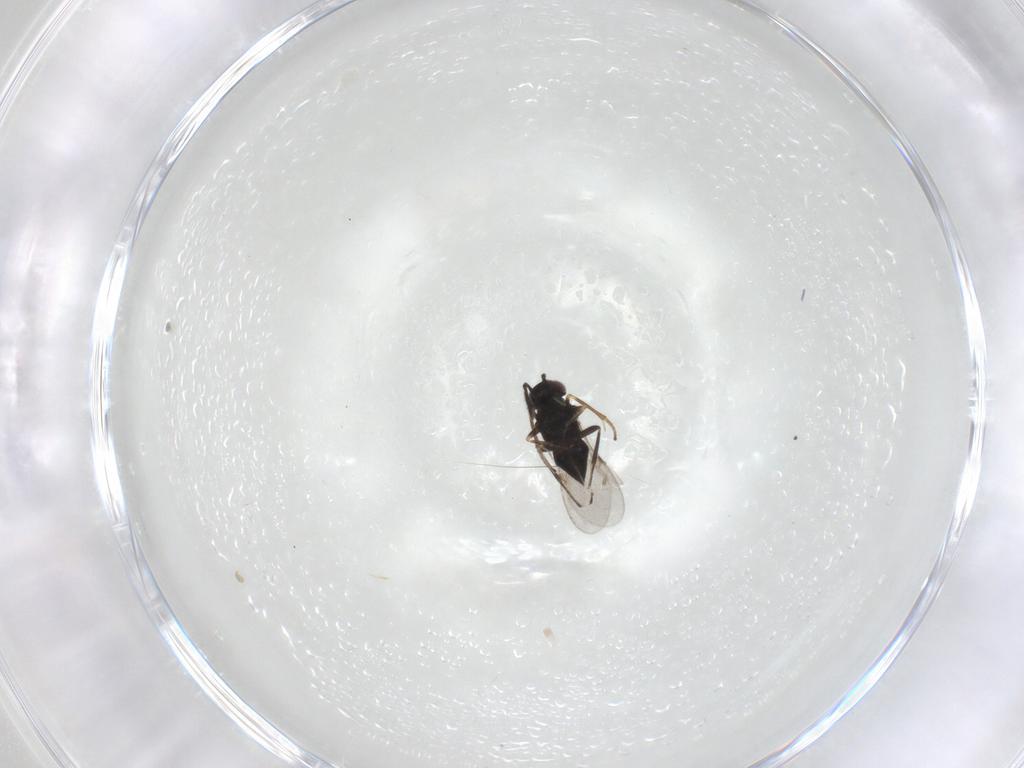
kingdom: Animalia
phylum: Arthropoda
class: Insecta
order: Hymenoptera
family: Encyrtidae
